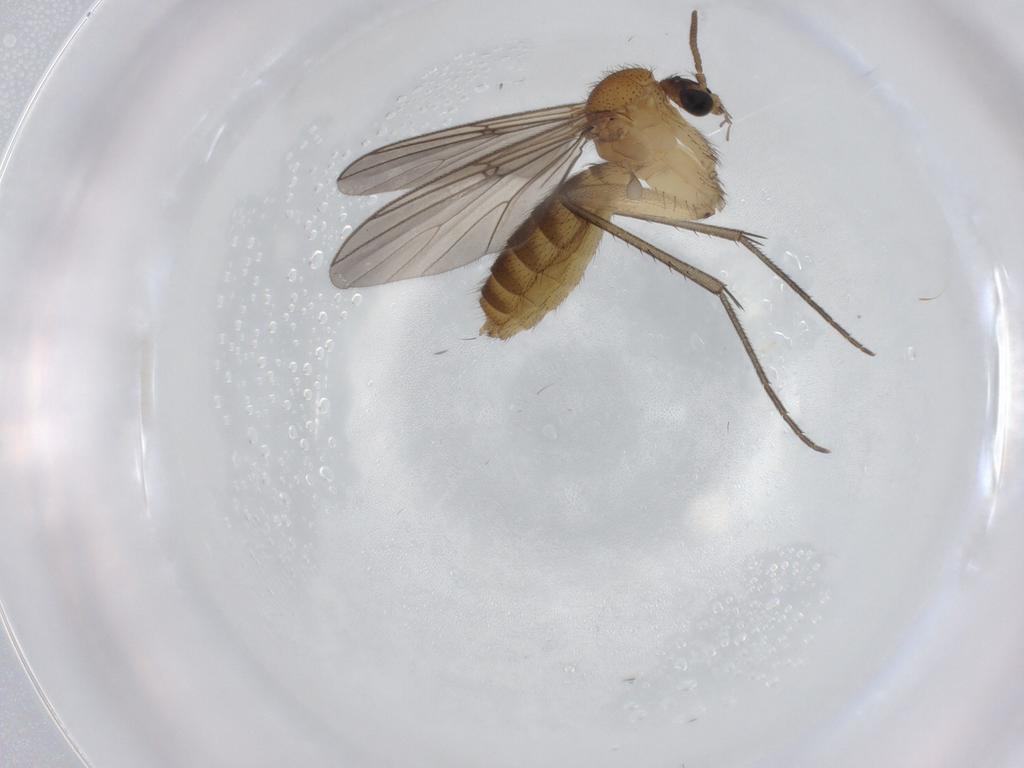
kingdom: Animalia
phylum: Arthropoda
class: Insecta
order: Diptera
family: Mycetophilidae
